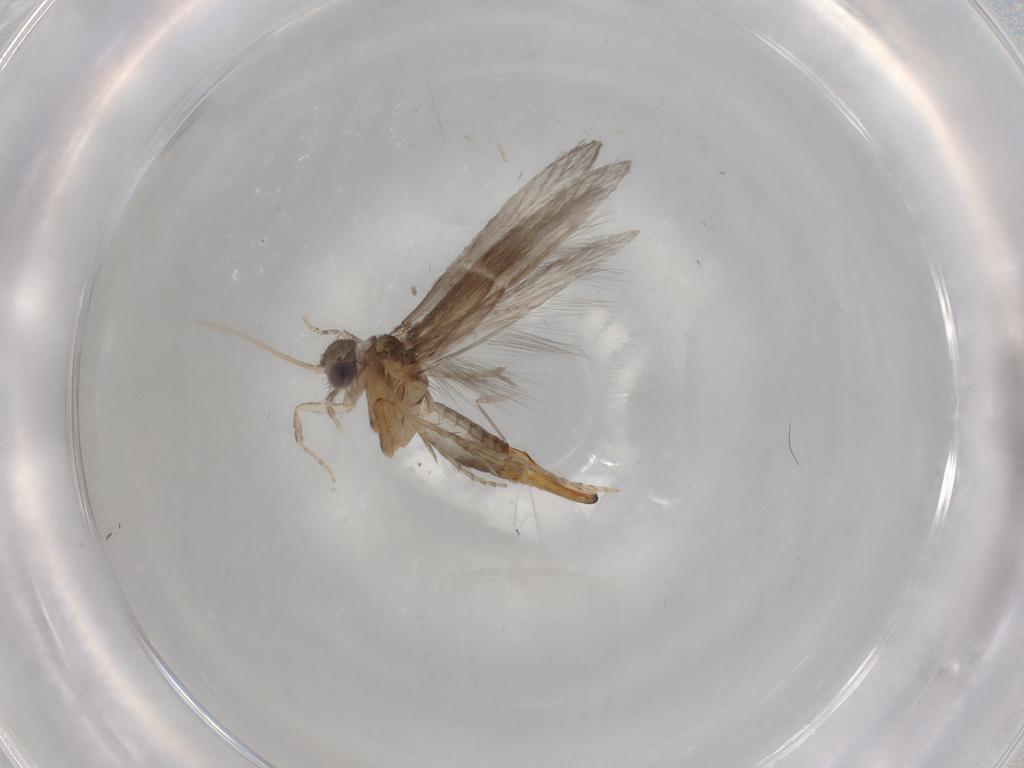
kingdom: Animalia
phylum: Arthropoda
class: Insecta
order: Trichoptera
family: Hydroptilidae
